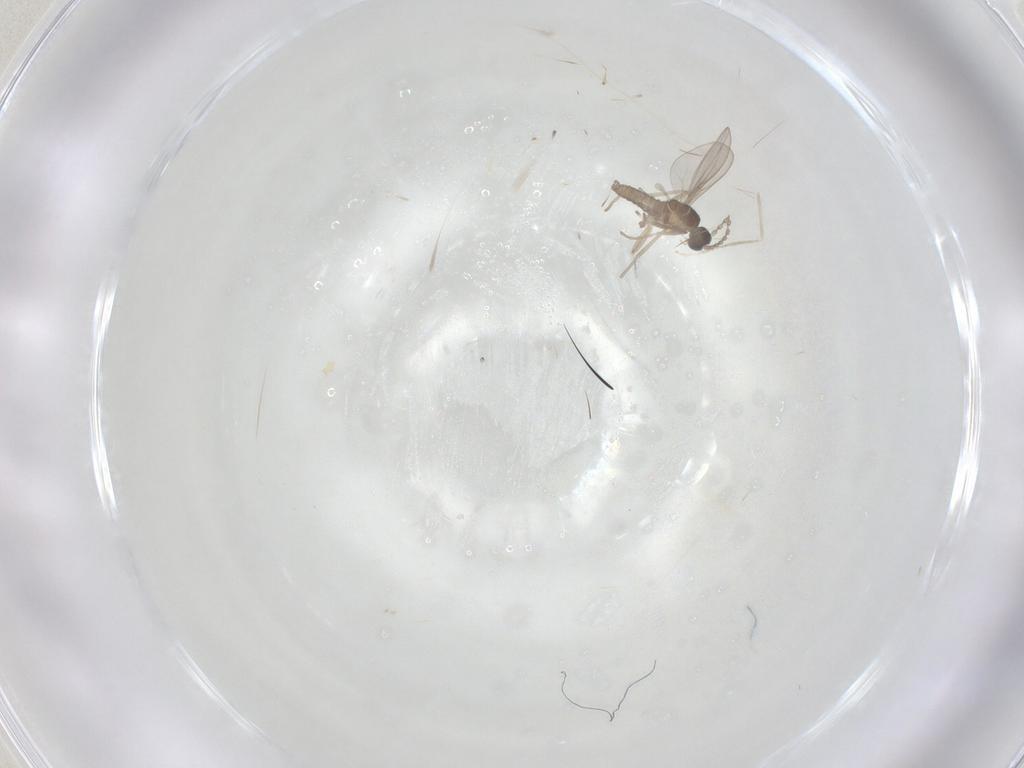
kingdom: Animalia
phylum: Arthropoda
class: Insecta
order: Diptera
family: Cecidomyiidae
